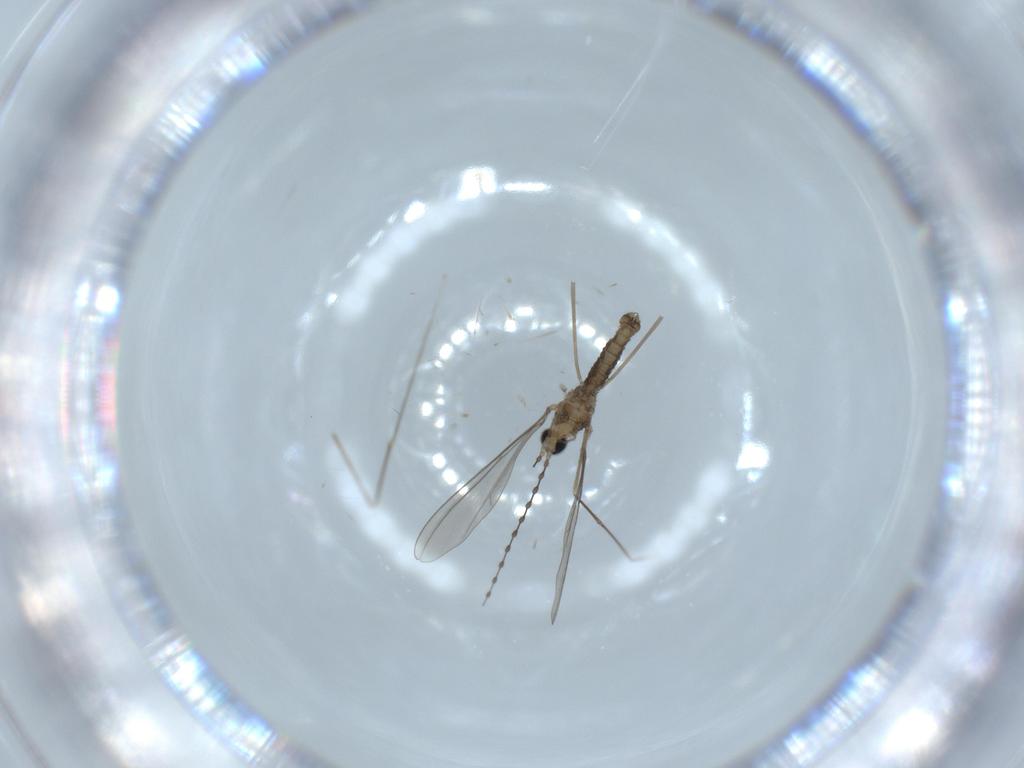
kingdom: Animalia
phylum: Arthropoda
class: Insecta
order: Diptera
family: Cecidomyiidae
